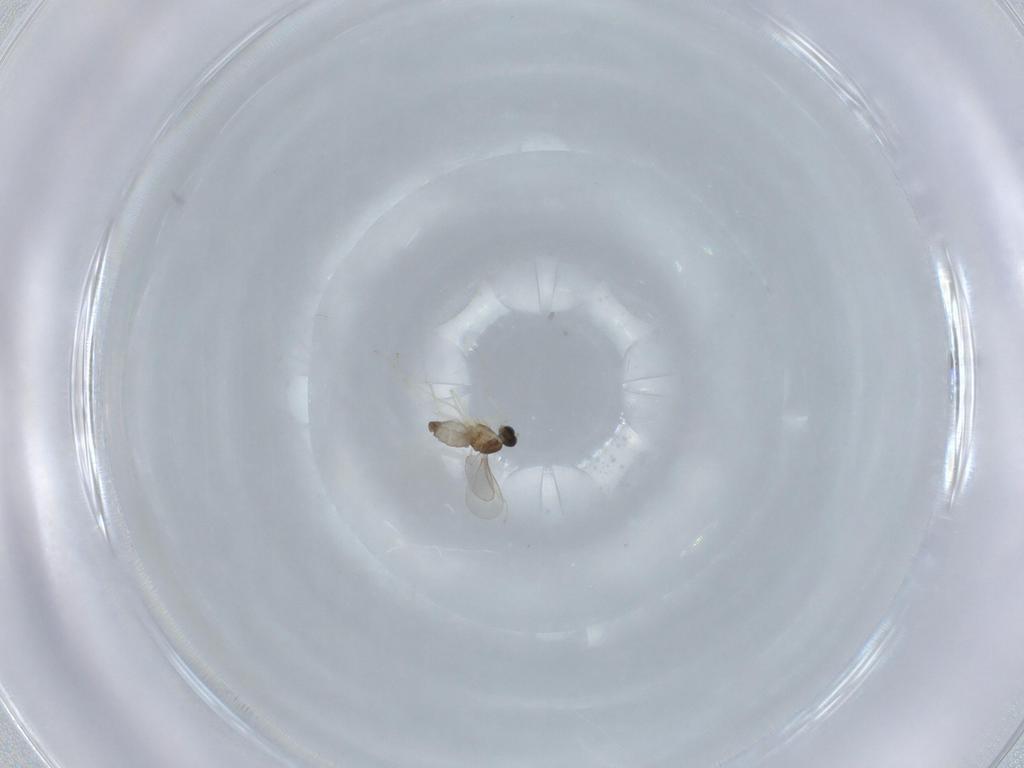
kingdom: Animalia
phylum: Arthropoda
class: Insecta
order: Diptera
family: Cecidomyiidae
